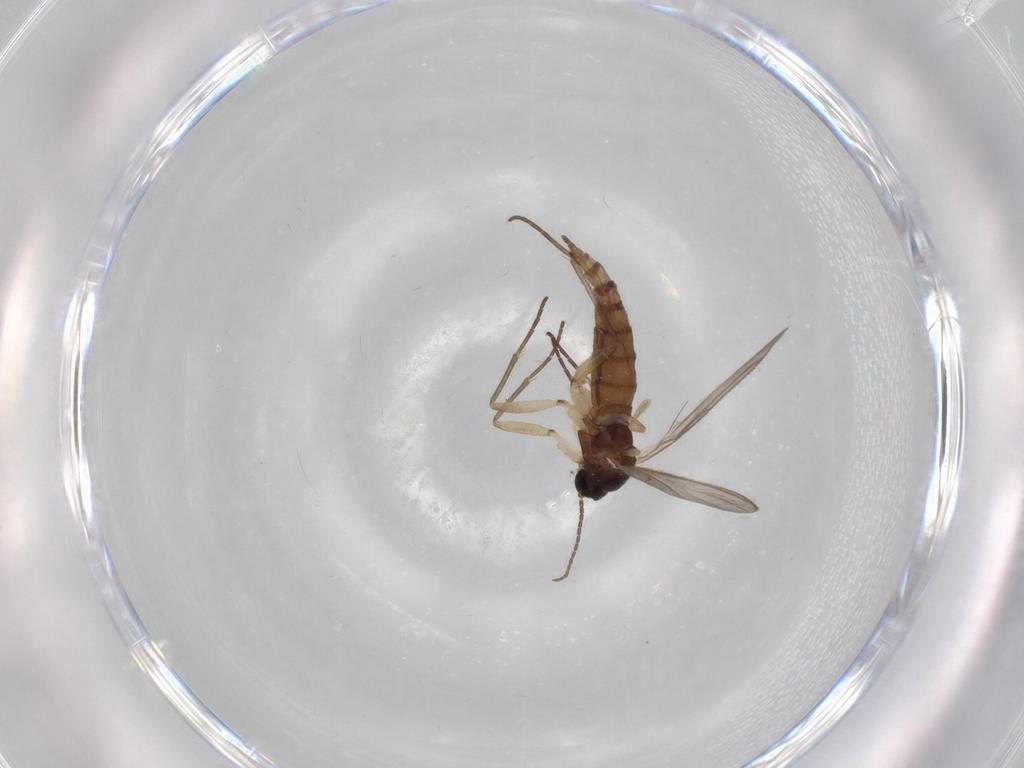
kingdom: Animalia
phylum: Arthropoda
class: Insecta
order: Diptera
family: Sciaridae
